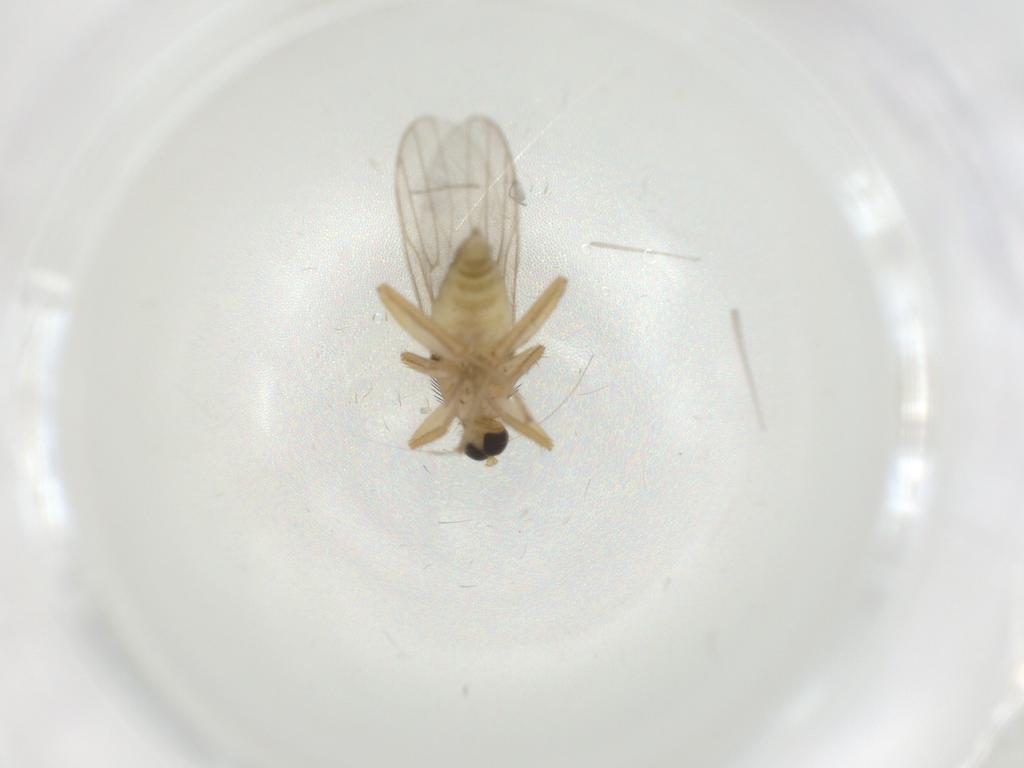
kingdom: Animalia
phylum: Arthropoda
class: Insecta
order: Diptera
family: Hybotidae
